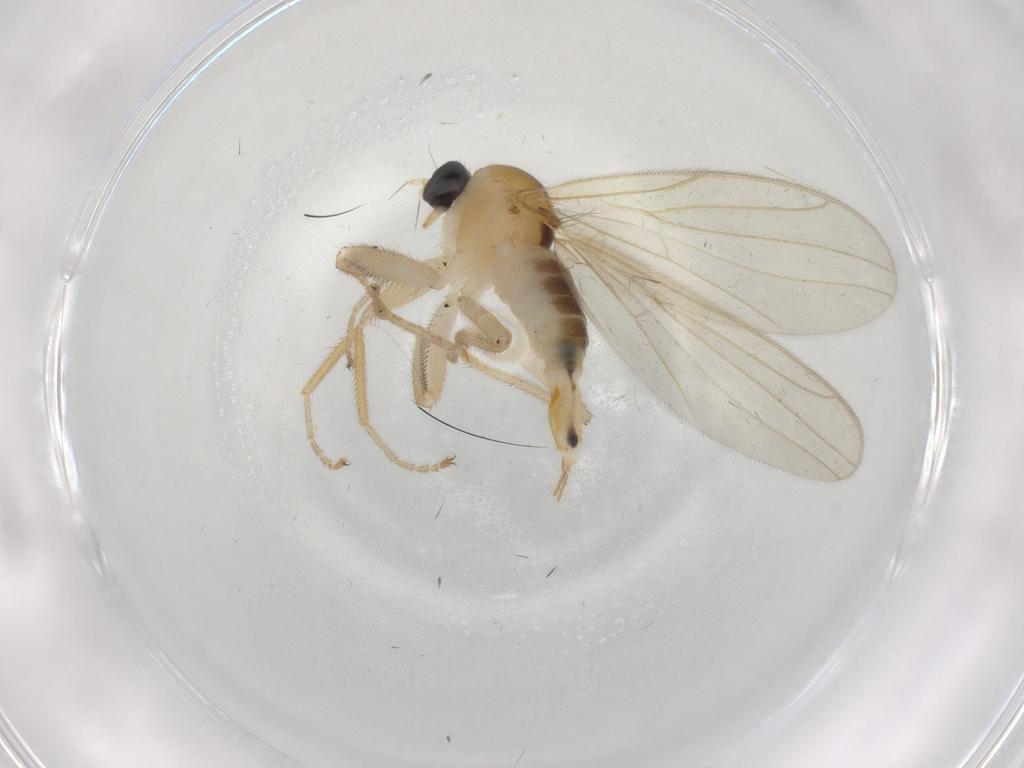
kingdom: Animalia
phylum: Arthropoda
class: Insecta
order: Diptera
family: Hybotidae
